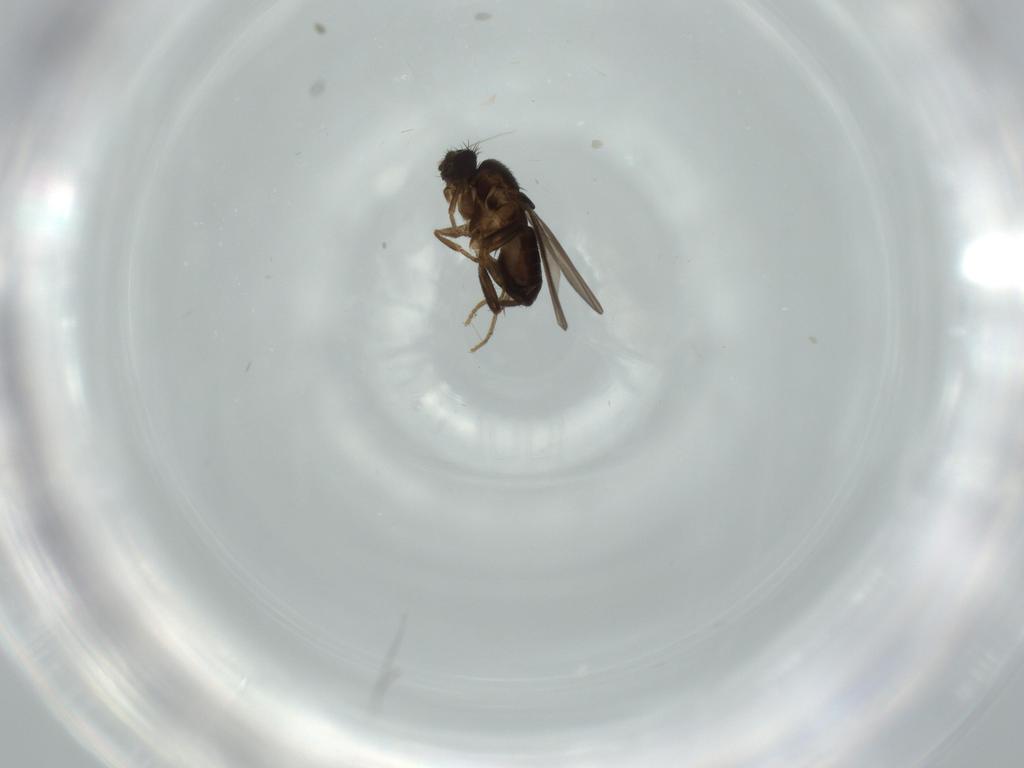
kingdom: Animalia
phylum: Arthropoda
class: Insecta
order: Diptera
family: Sphaeroceridae
